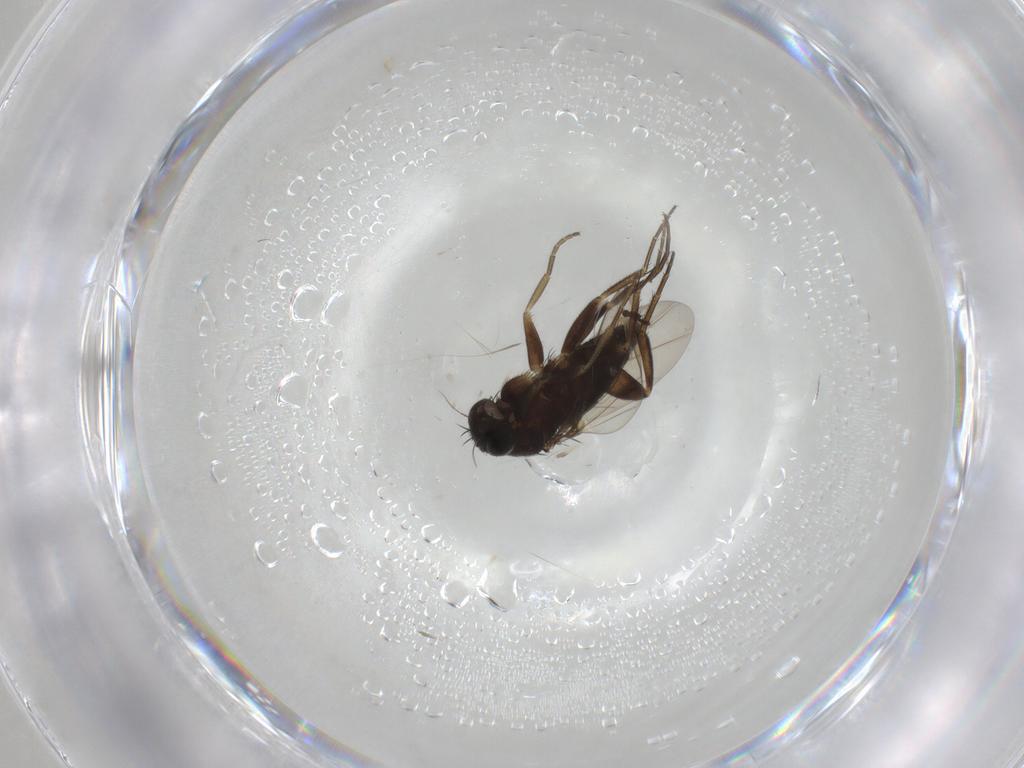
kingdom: Animalia
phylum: Arthropoda
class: Insecta
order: Diptera
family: Phoridae
